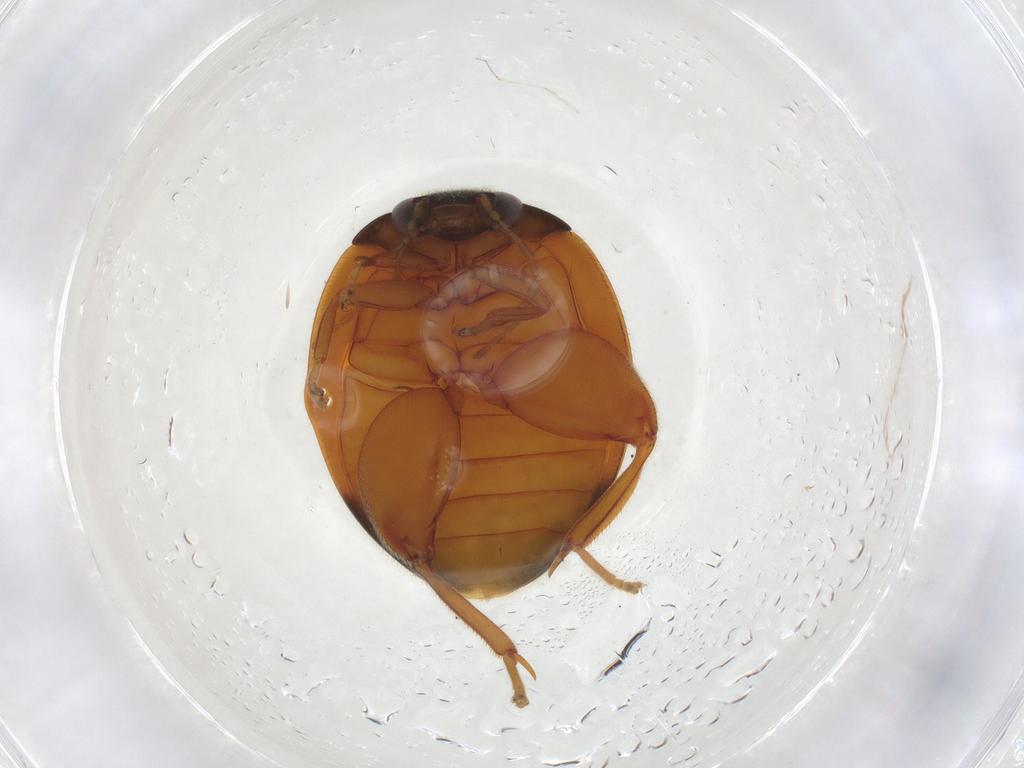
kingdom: Animalia
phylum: Arthropoda
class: Insecta
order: Coleoptera
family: Scirtidae
